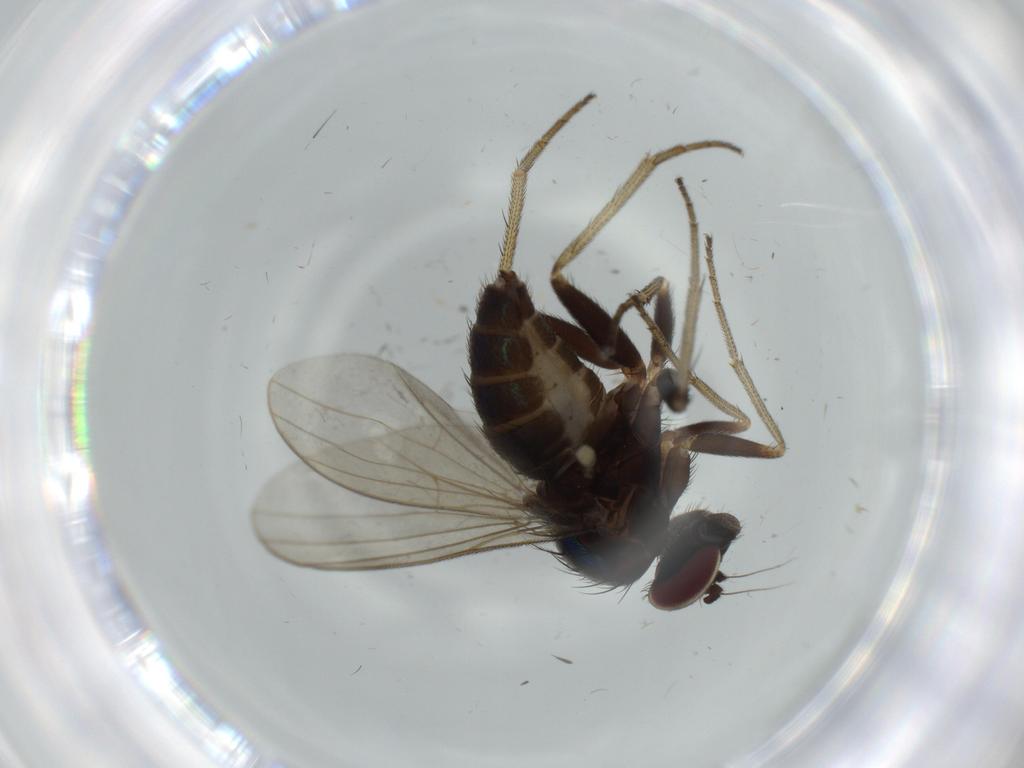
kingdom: Animalia
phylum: Arthropoda
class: Insecta
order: Diptera
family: Dolichopodidae
